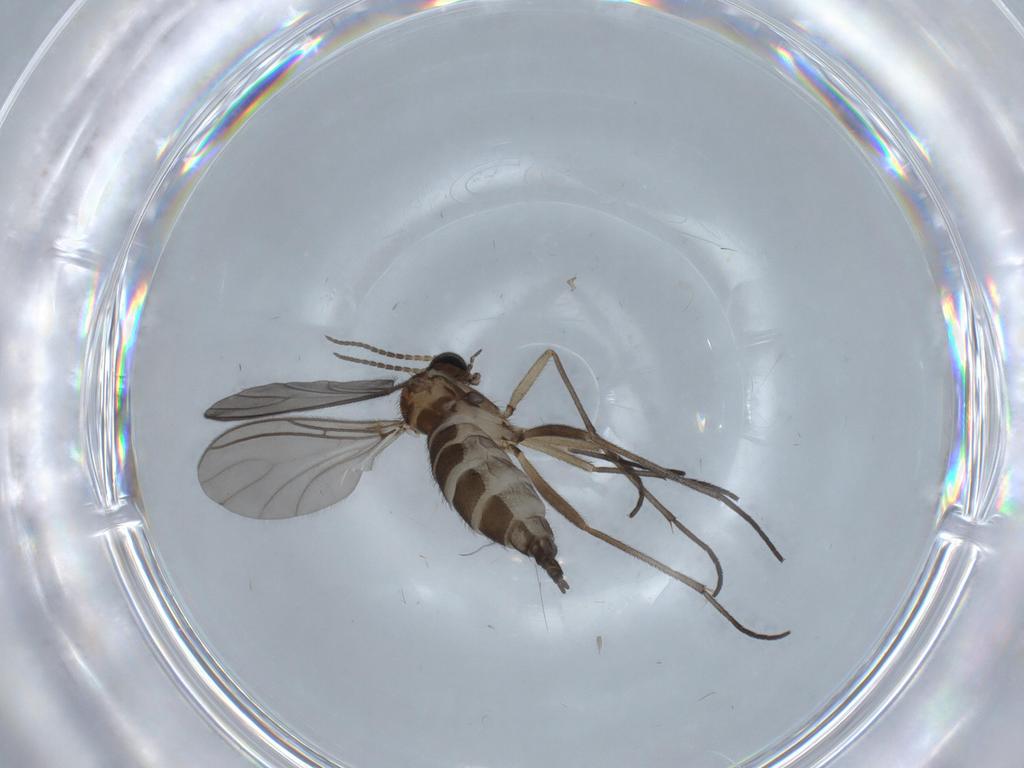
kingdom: Animalia
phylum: Arthropoda
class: Insecta
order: Diptera
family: Sciaridae
